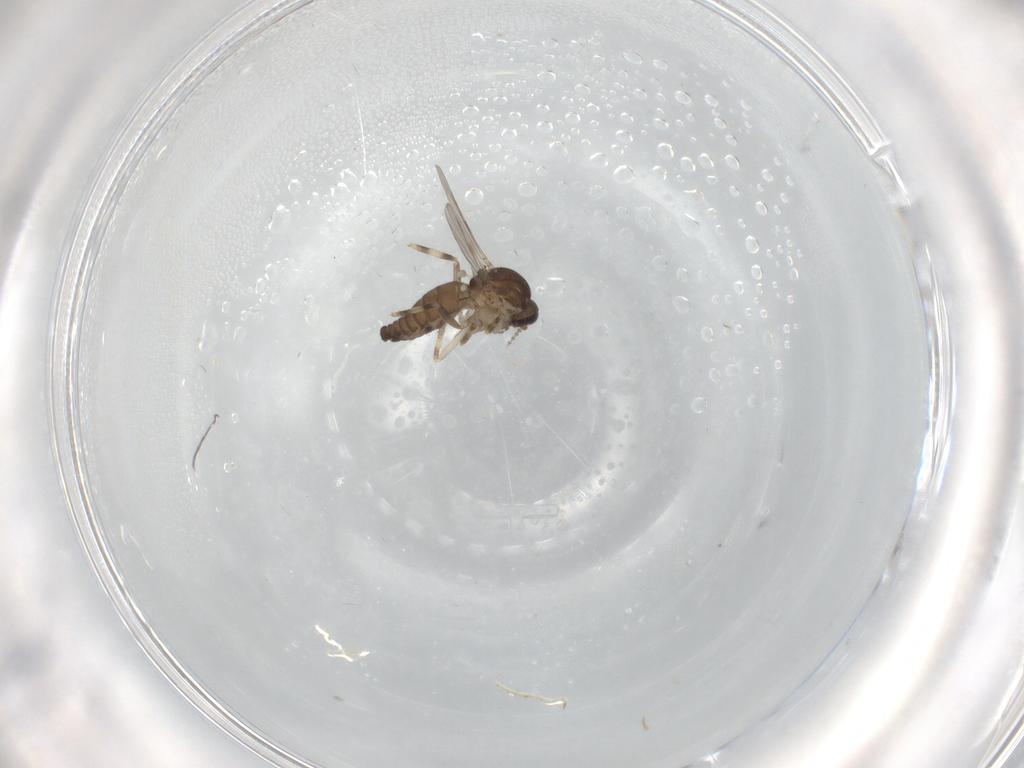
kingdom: Animalia
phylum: Arthropoda
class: Insecta
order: Diptera
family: Ceratopogonidae
